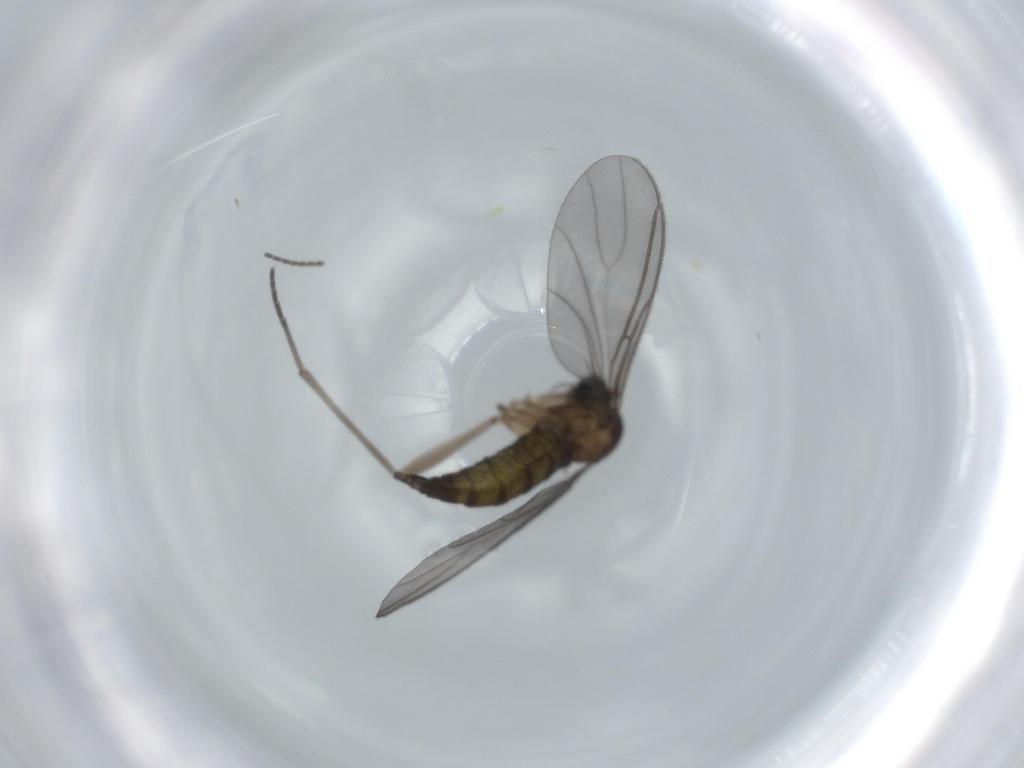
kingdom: Animalia
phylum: Arthropoda
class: Insecta
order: Diptera
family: Sciaridae
